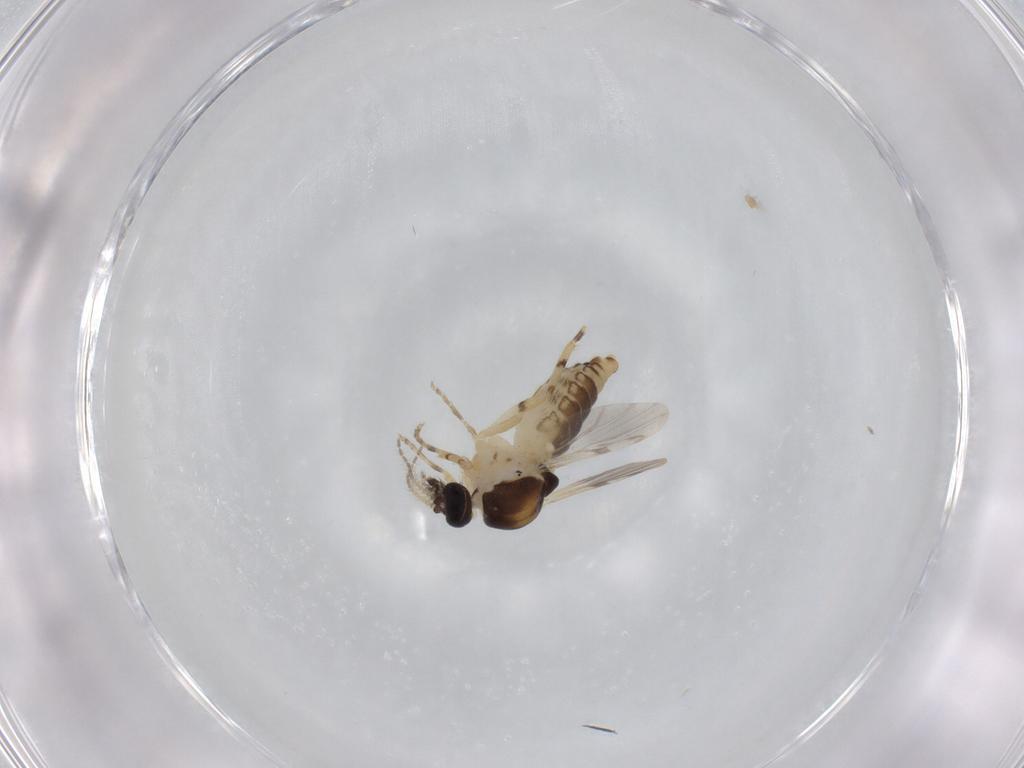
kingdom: Animalia
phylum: Arthropoda
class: Insecta
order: Diptera
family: Ceratopogonidae
